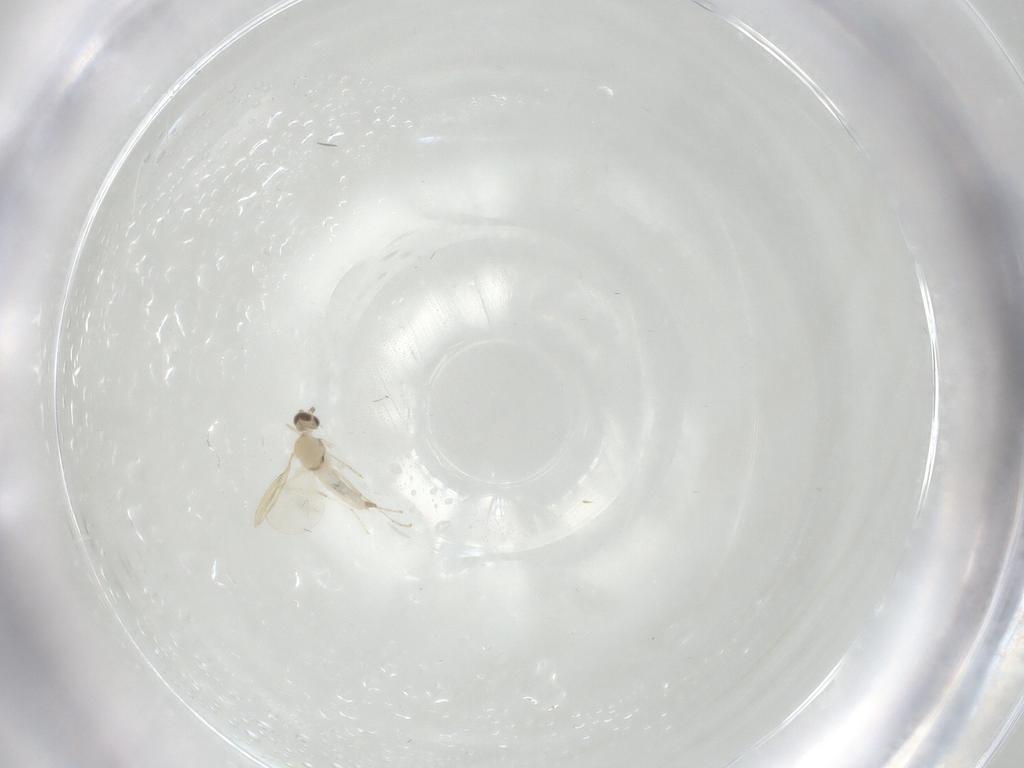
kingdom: Animalia
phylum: Arthropoda
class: Insecta
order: Diptera
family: Cecidomyiidae
